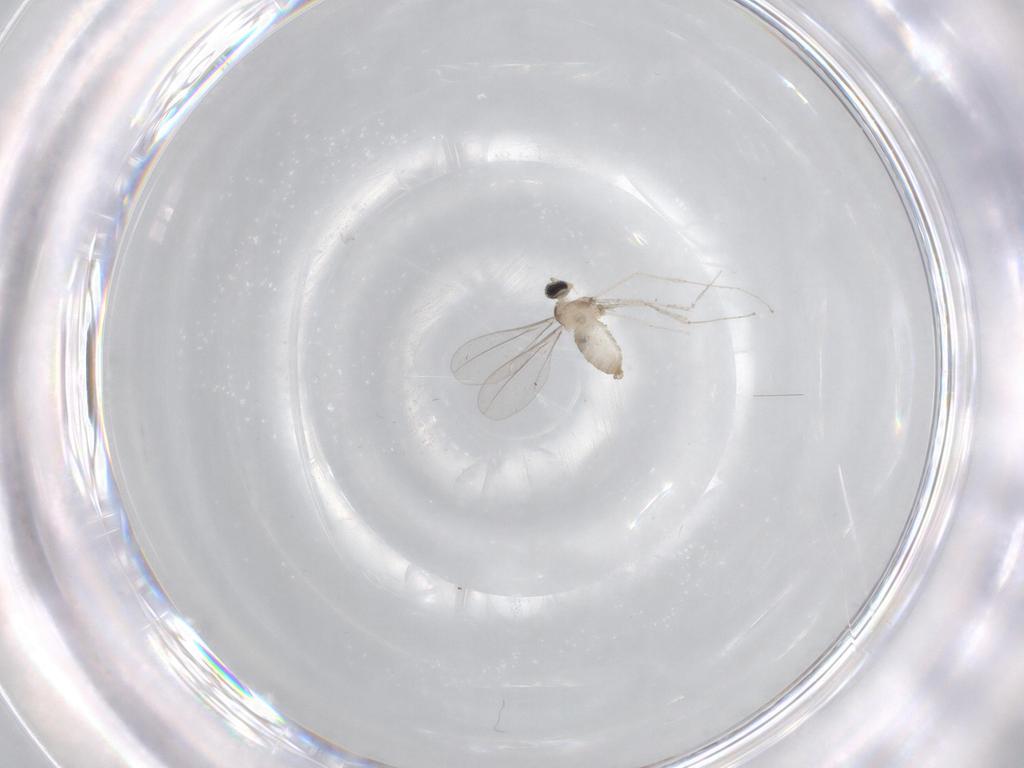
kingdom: Animalia
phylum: Arthropoda
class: Insecta
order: Diptera
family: Cecidomyiidae
